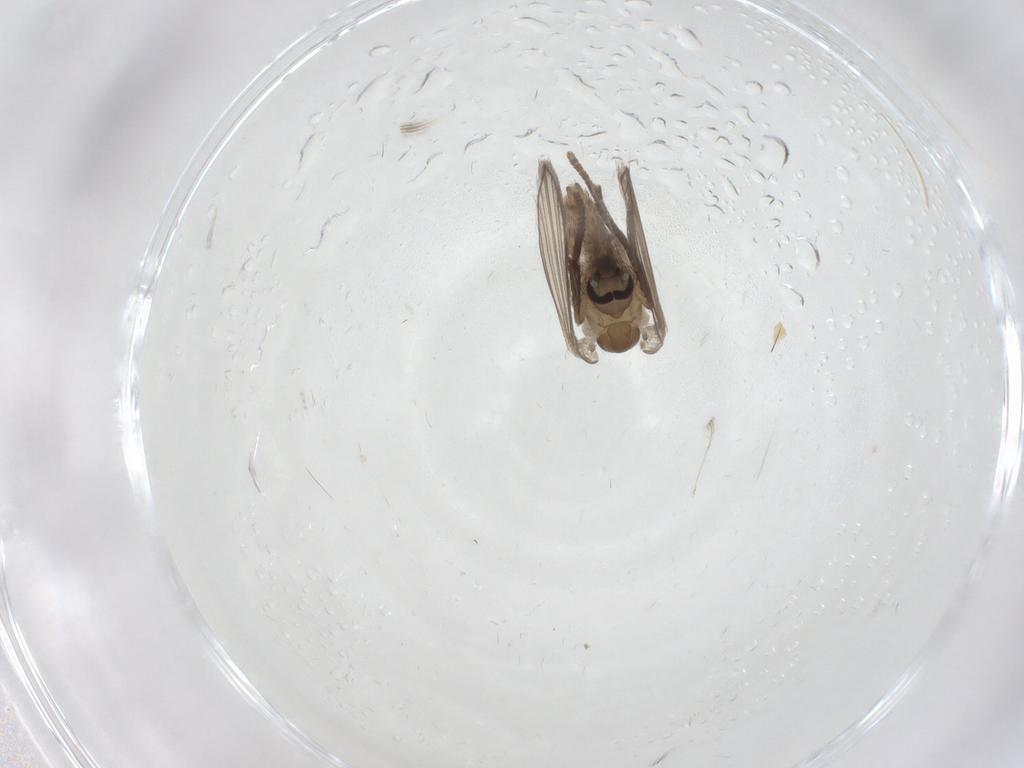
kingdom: Animalia
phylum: Arthropoda
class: Insecta
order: Diptera
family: Psychodidae
